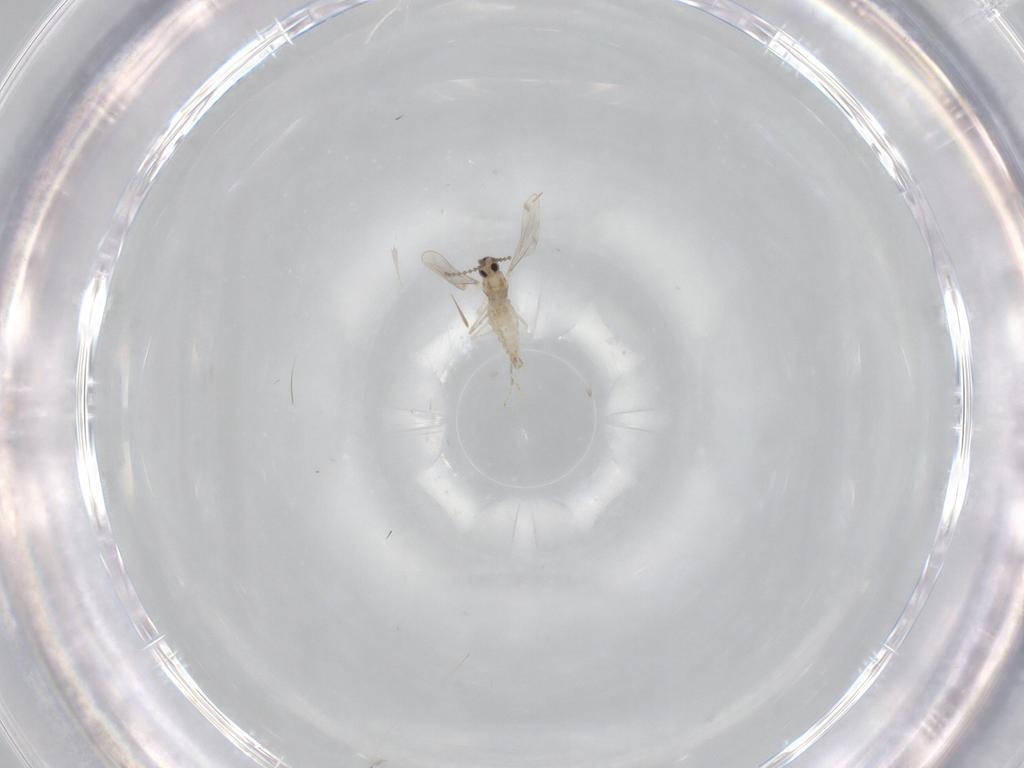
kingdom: Animalia
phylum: Arthropoda
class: Insecta
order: Diptera
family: Cecidomyiidae
